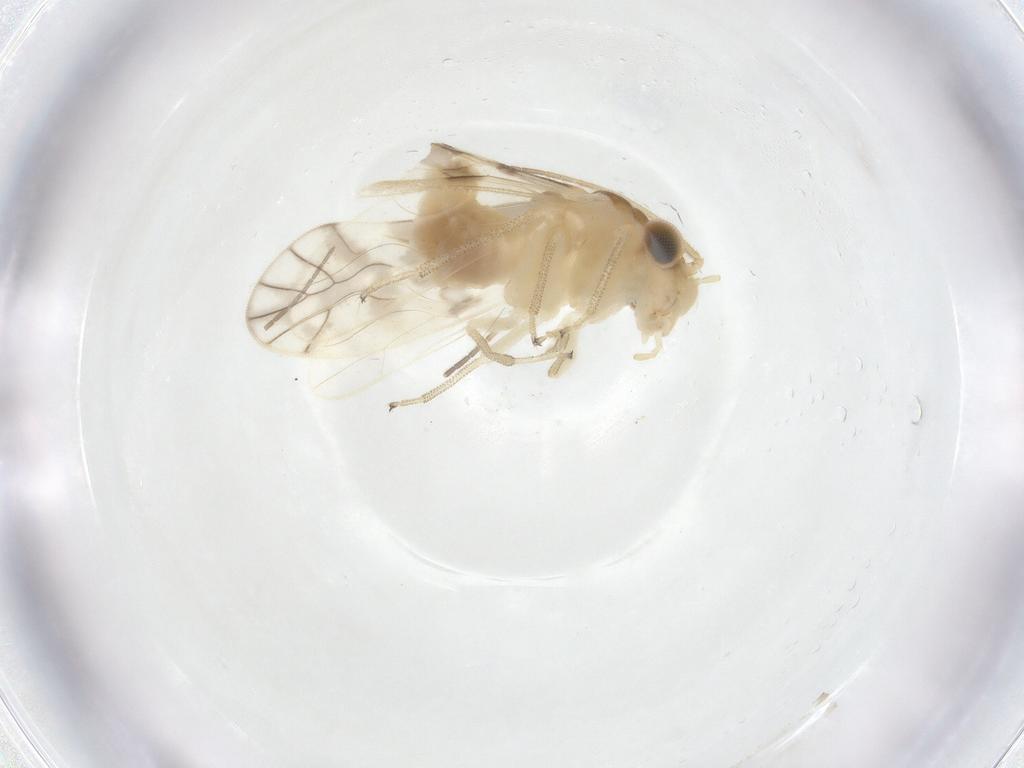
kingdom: Animalia
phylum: Arthropoda
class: Insecta
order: Psocodea
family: Caeciliusidae
